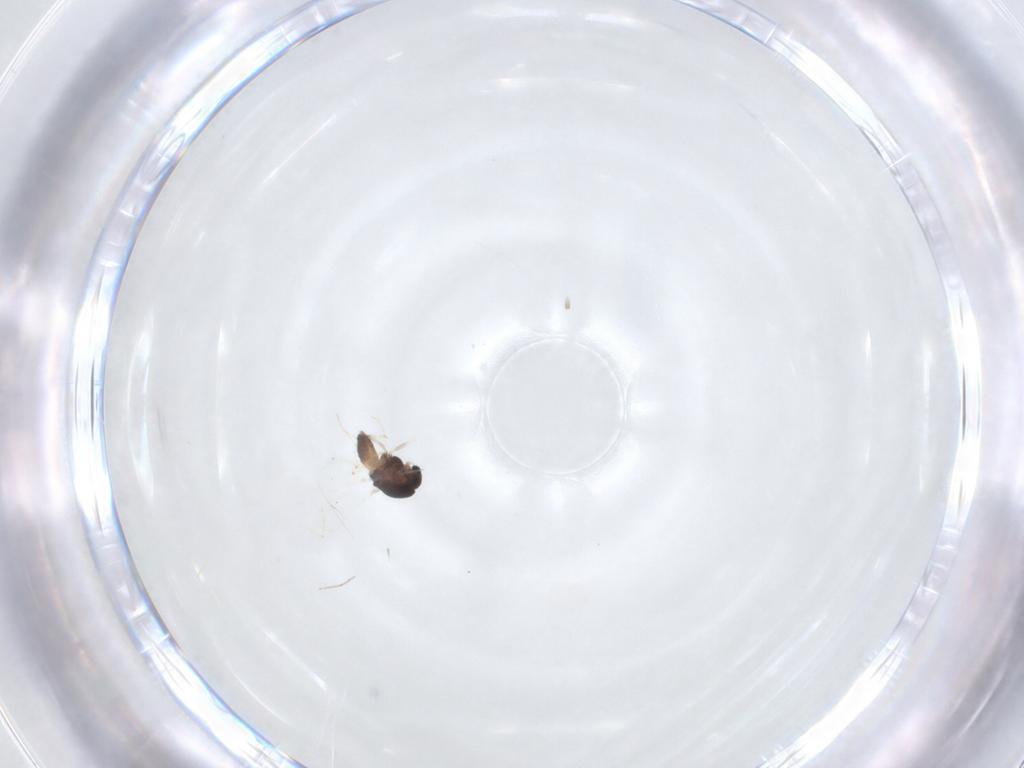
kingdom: Animalia
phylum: Arthropoda
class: Insecta
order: Diptera
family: Chironomidae
